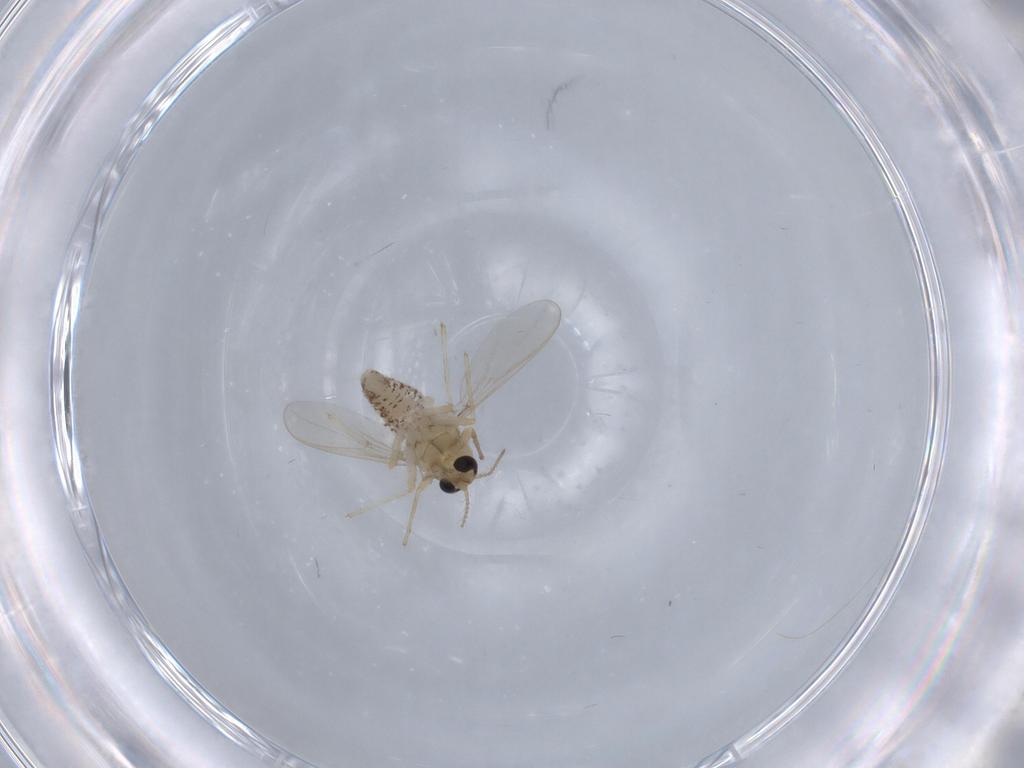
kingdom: Animalia
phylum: Arthropoda
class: Insecta
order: Diptera
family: Chironomidae
